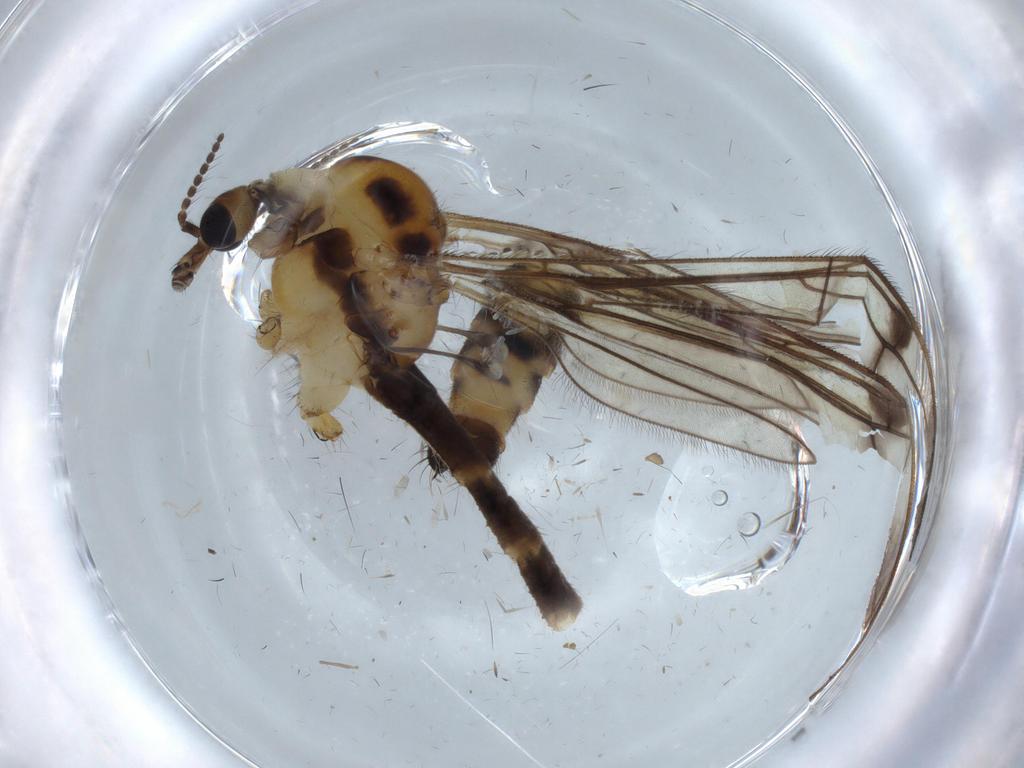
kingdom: Animalia
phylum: Arthropoda
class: Insecta
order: Diptera
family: Limoniidae
